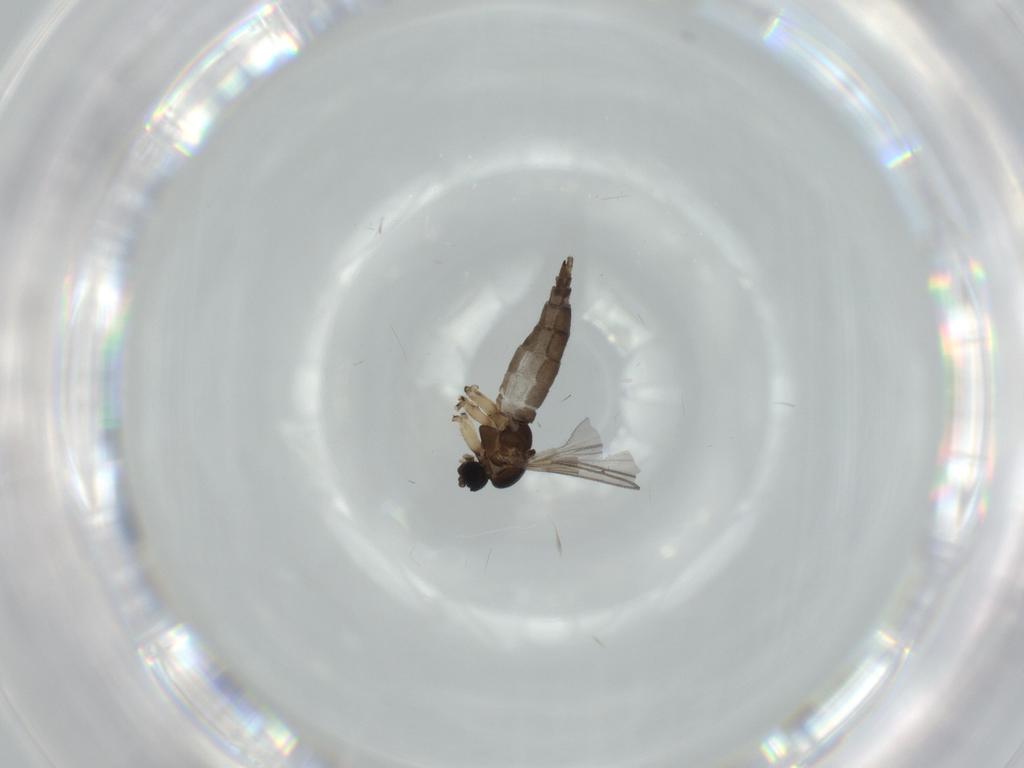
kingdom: Animalia
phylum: Arthropoda
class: Insecta
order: Diptera
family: Sciaridae
